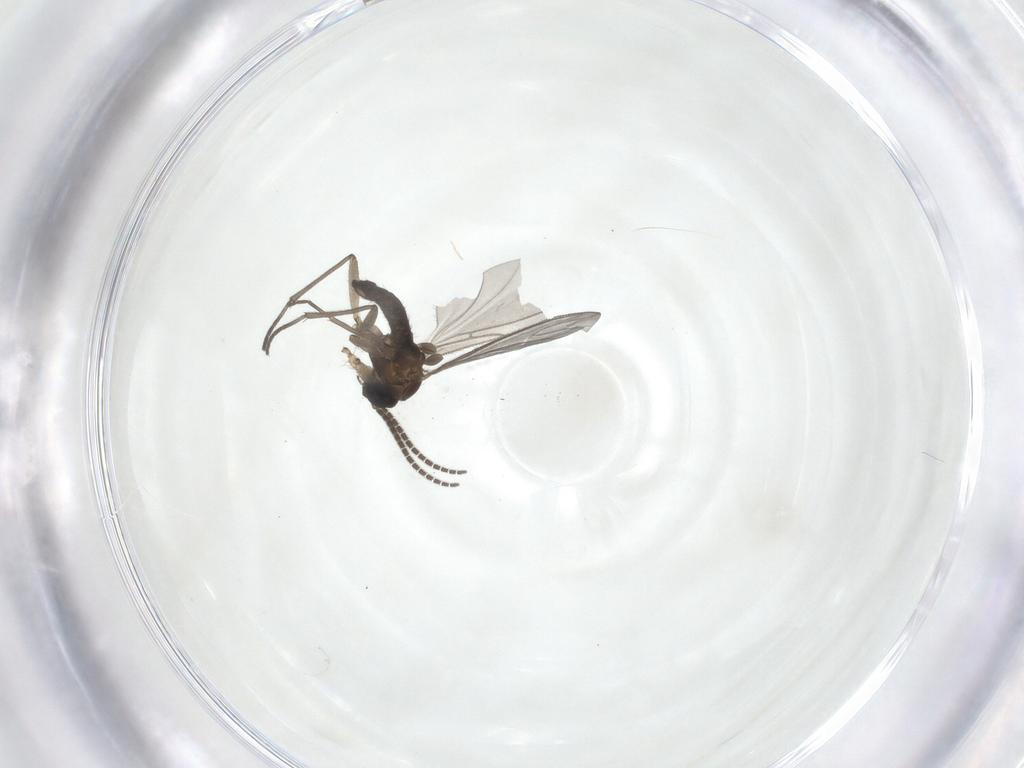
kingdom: Animalia
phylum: Arthropoda
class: Insecta
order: Diptera
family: Sciaridae
